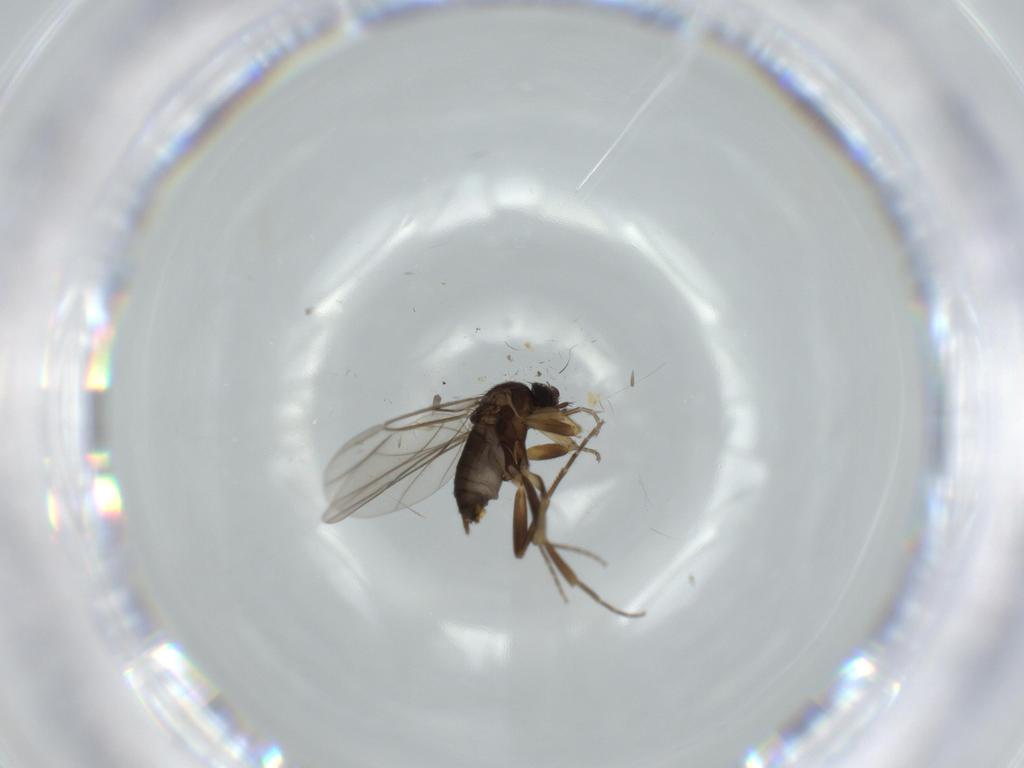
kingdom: Animalia
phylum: Arthropoda
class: Insecta
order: Diptera
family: Phoridae
